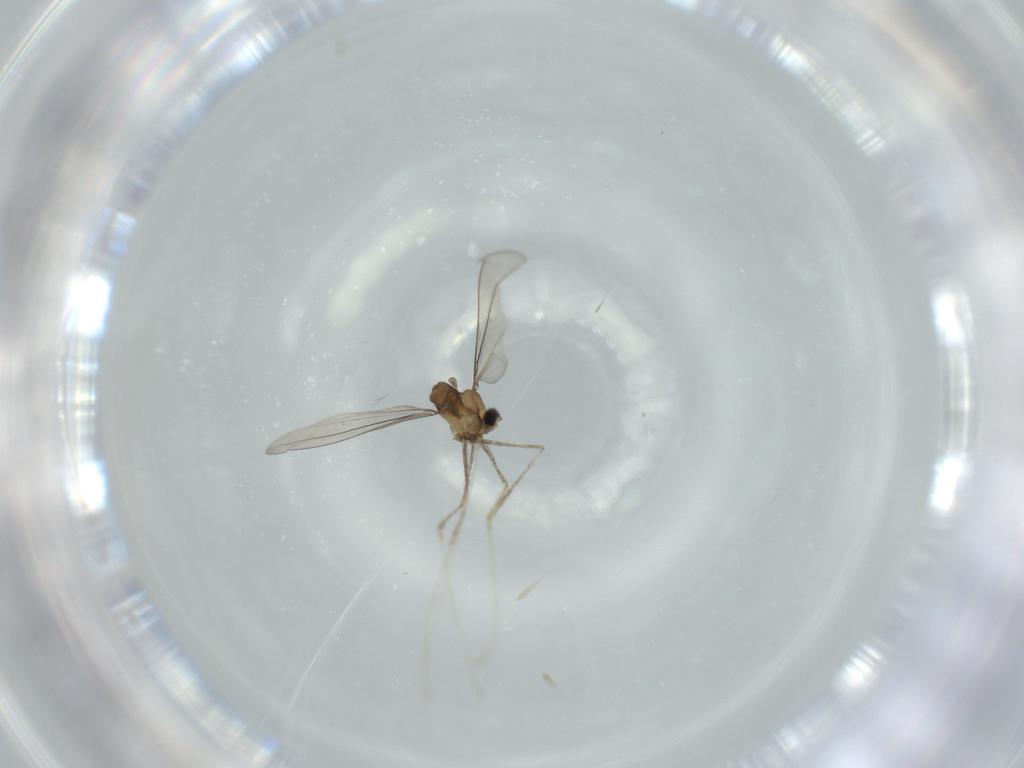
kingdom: Animalia
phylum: Arthropoda
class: Insecta
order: Diptera
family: Cecidomyiidae
